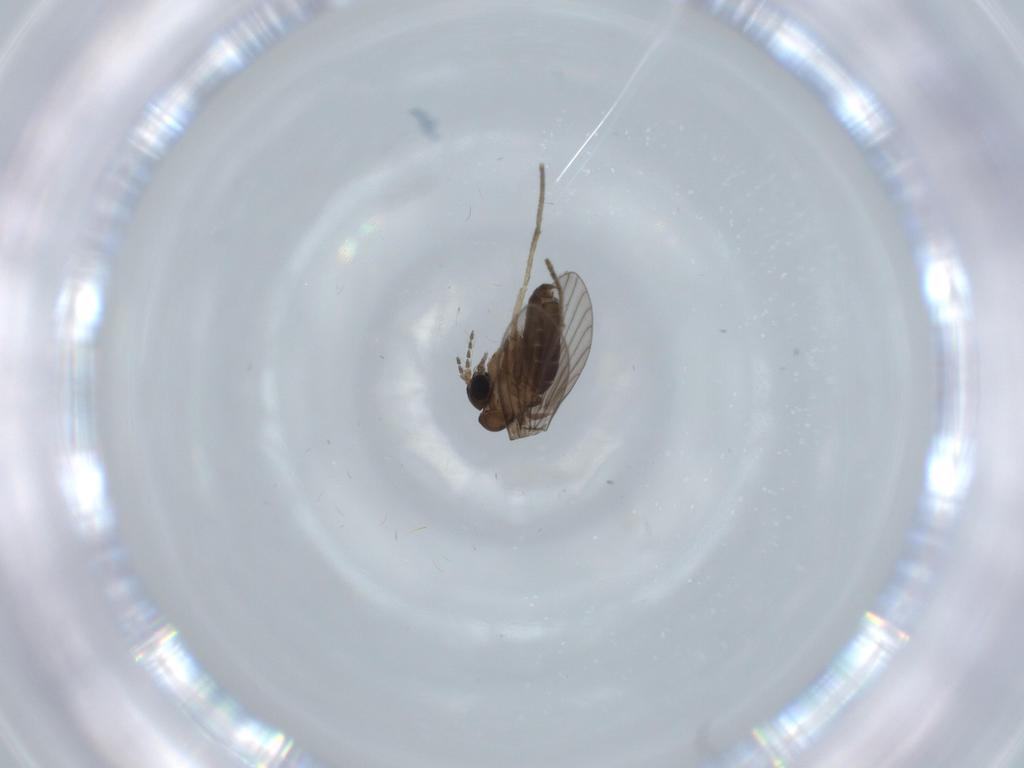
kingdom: Animalia
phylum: Arthropoda
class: Insecta
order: Diptera
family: Psychodidae
